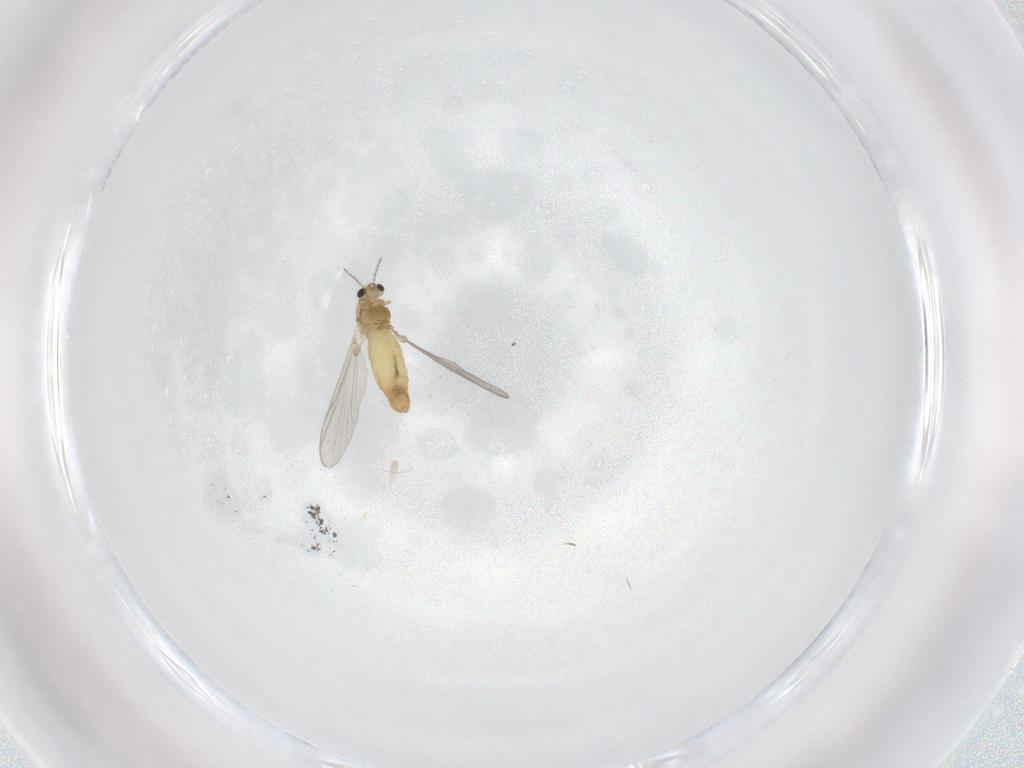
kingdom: Animalia
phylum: Arthropoda
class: Insecta
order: Diptera
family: Chironomidae
